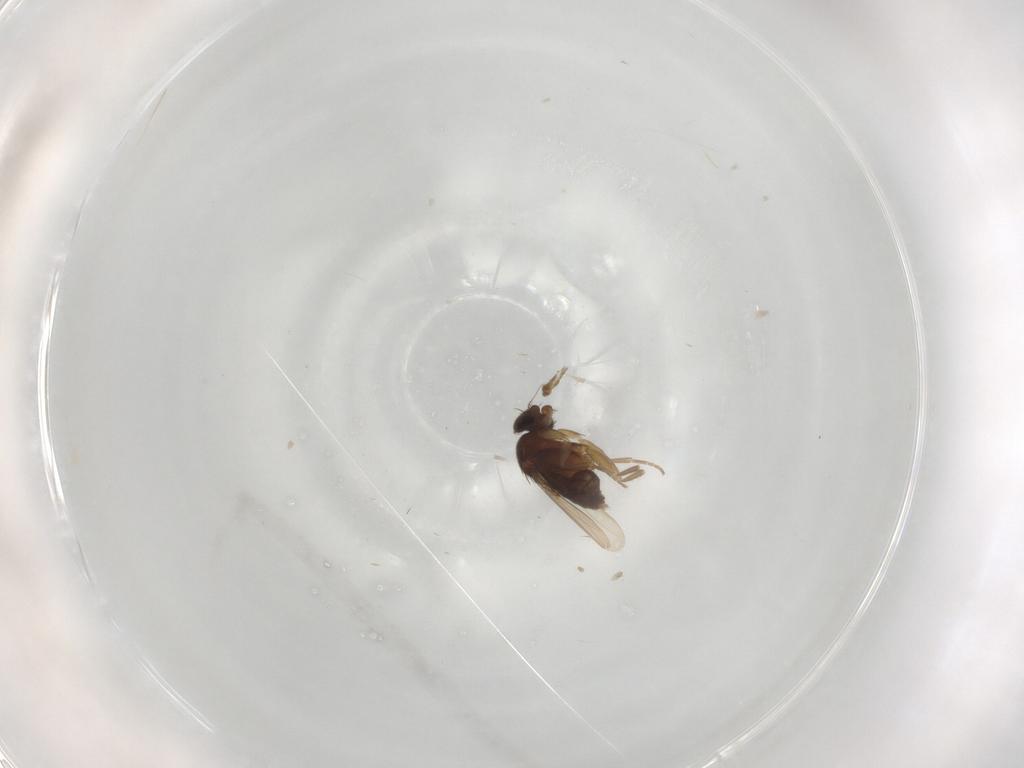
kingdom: Animalia
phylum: Arthropoda
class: Insecta
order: Diptera
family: Phoridae
